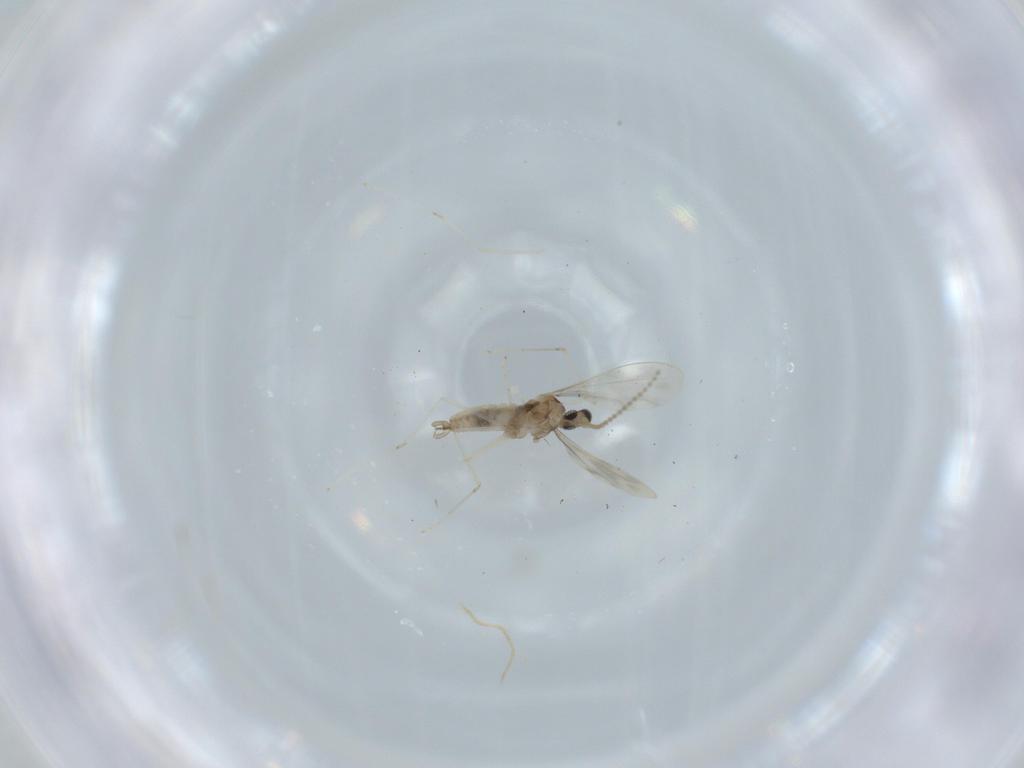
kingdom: Animalia
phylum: Arthropoda
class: Insecta
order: Diptera
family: Cecidomyiidae
